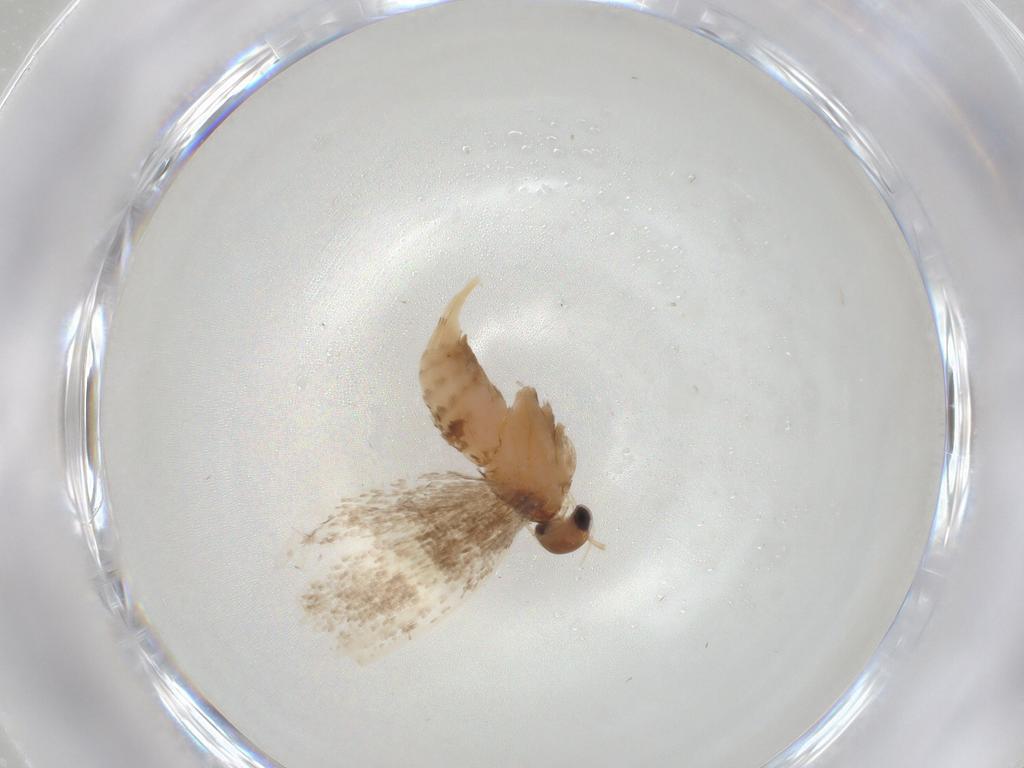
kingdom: Animalia
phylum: Arthropoda
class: Insecta
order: Lepidoptera
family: Oecophoridae
